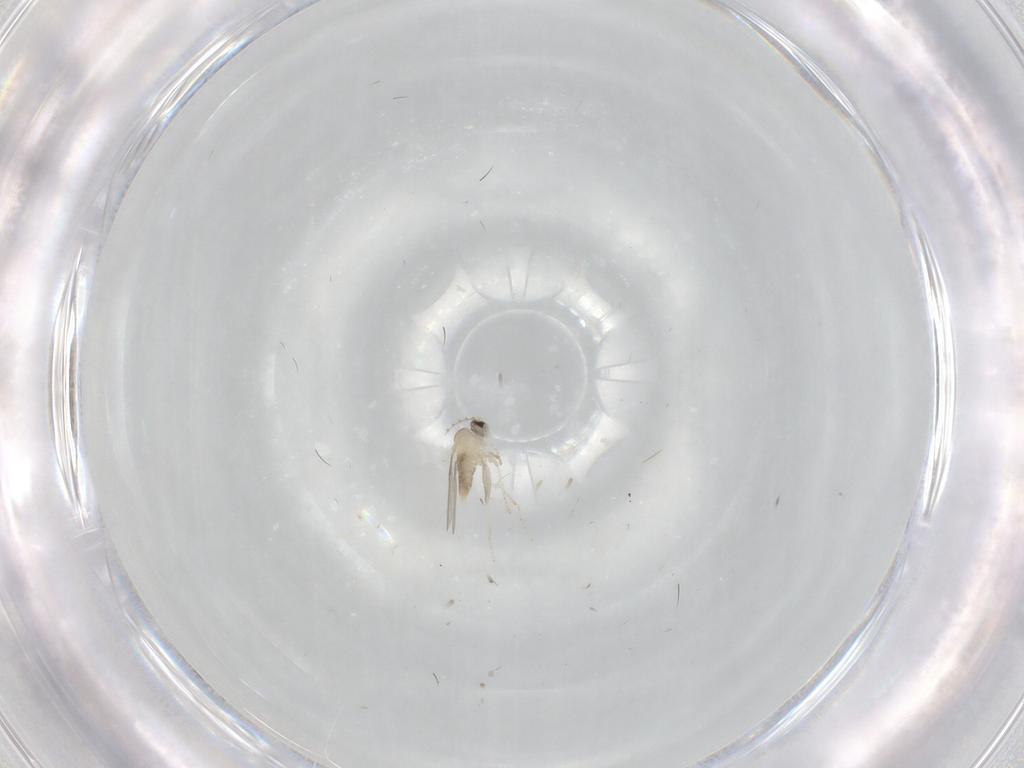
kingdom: Animalia
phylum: Arthropoda
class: Insecta
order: Diptera
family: Cecidomyiidae
